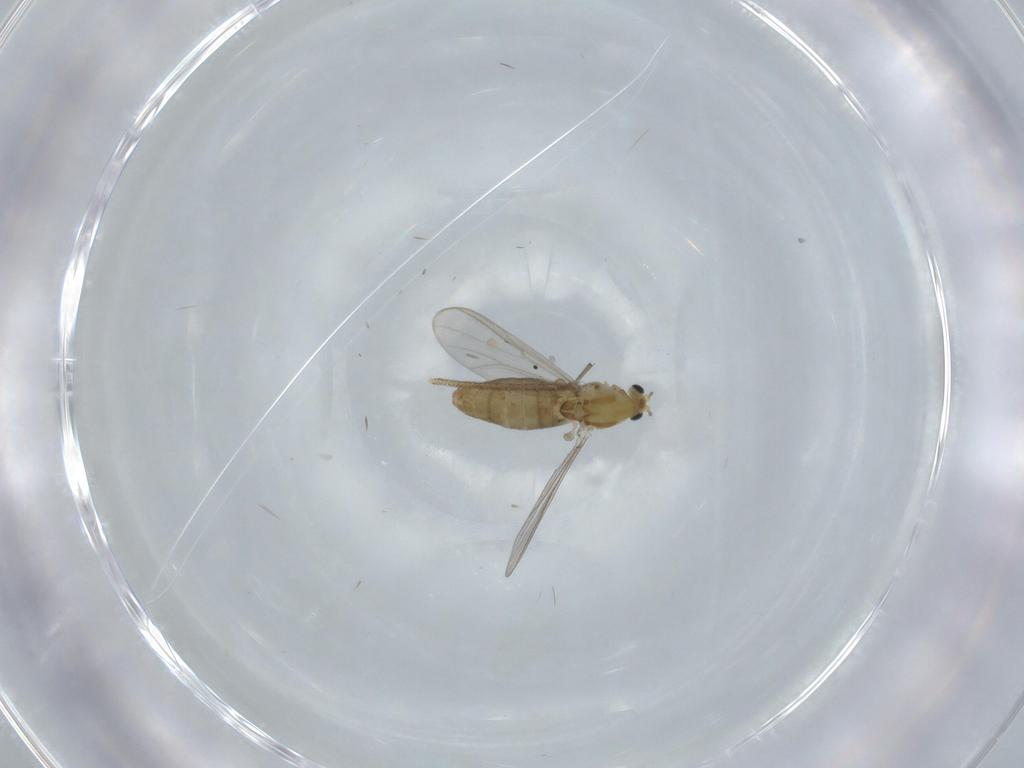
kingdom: Animalia
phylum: Arthropoda
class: Insecta
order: Diptera
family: Chironomidae
